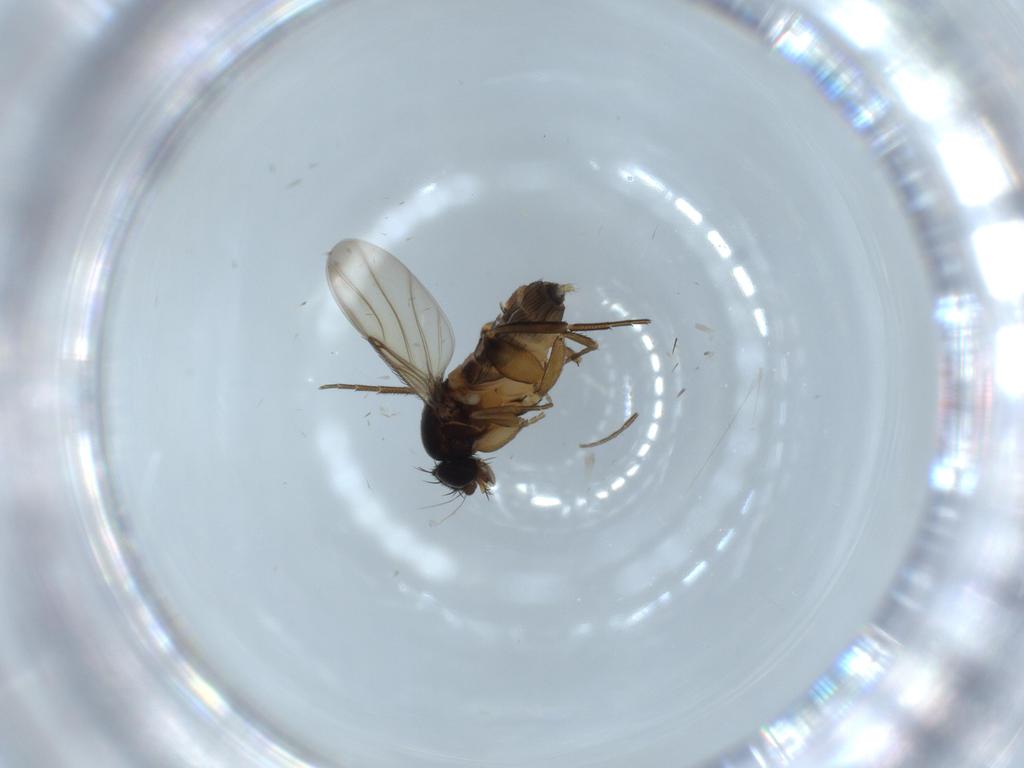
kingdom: Animalia
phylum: Arthropoda
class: Insecta
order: Diptera
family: Phoridae
